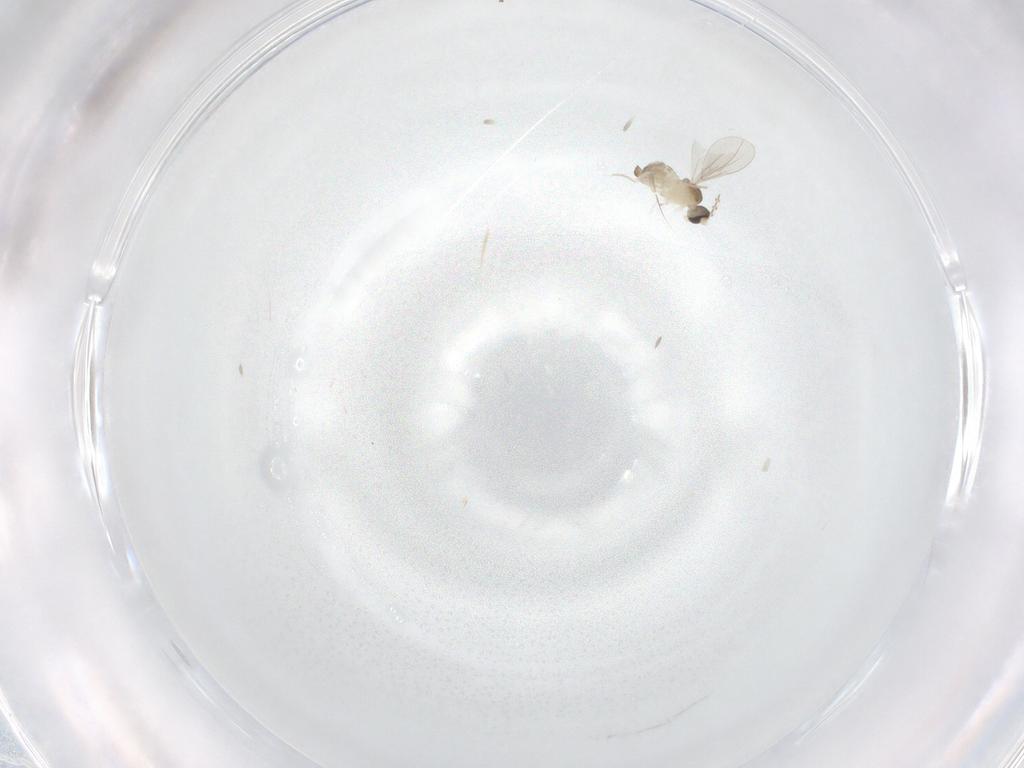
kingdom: Animalia
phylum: Arthropoda
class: Insecta
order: Diptera
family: Cecidomyiidae
